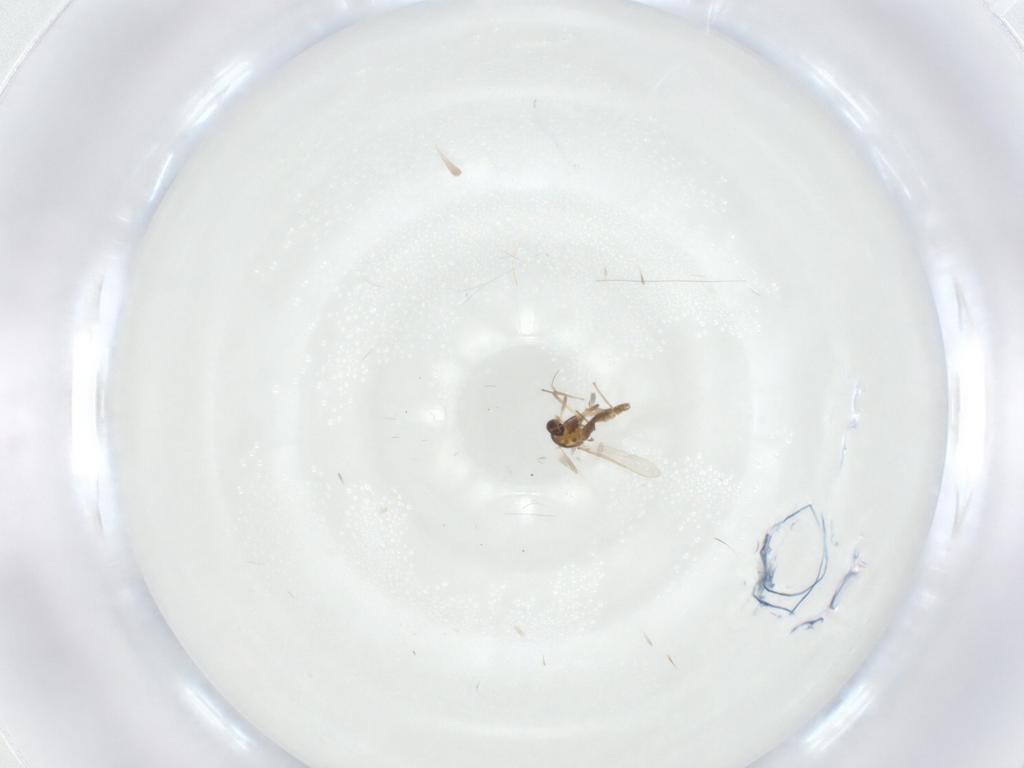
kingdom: Animalia
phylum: Arthropoda
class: Insecta
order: Diptera
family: Chironomidae
